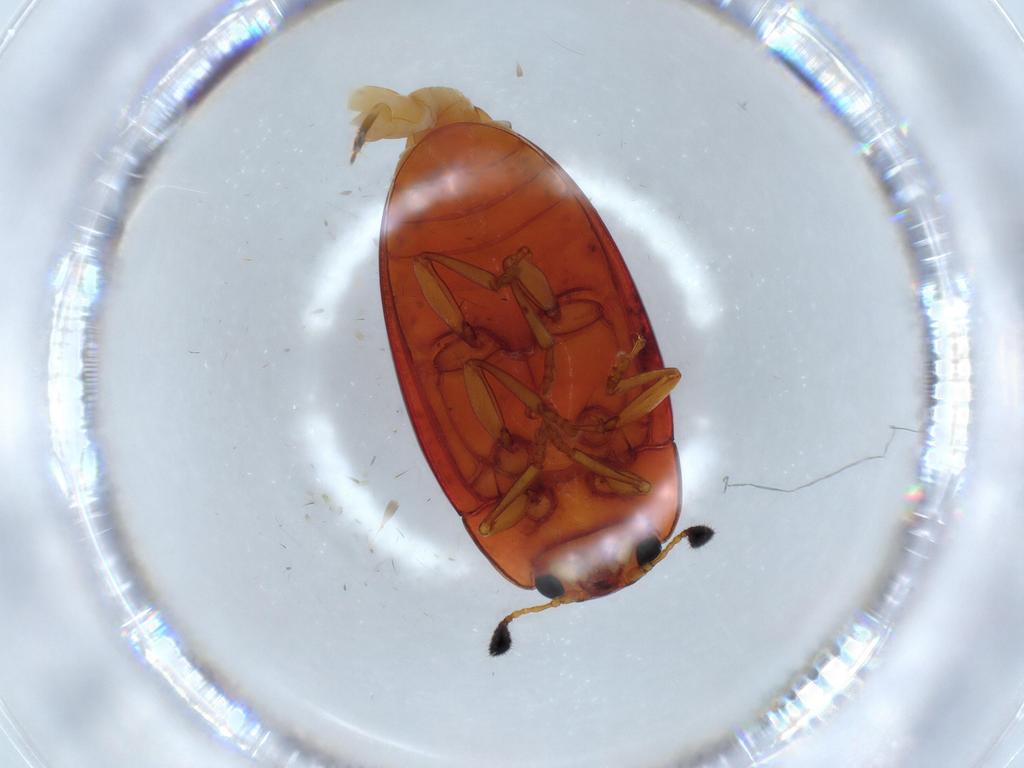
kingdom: Animalia
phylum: Arthropoda
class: Insecta
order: Coleoptera
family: Erotylidae
